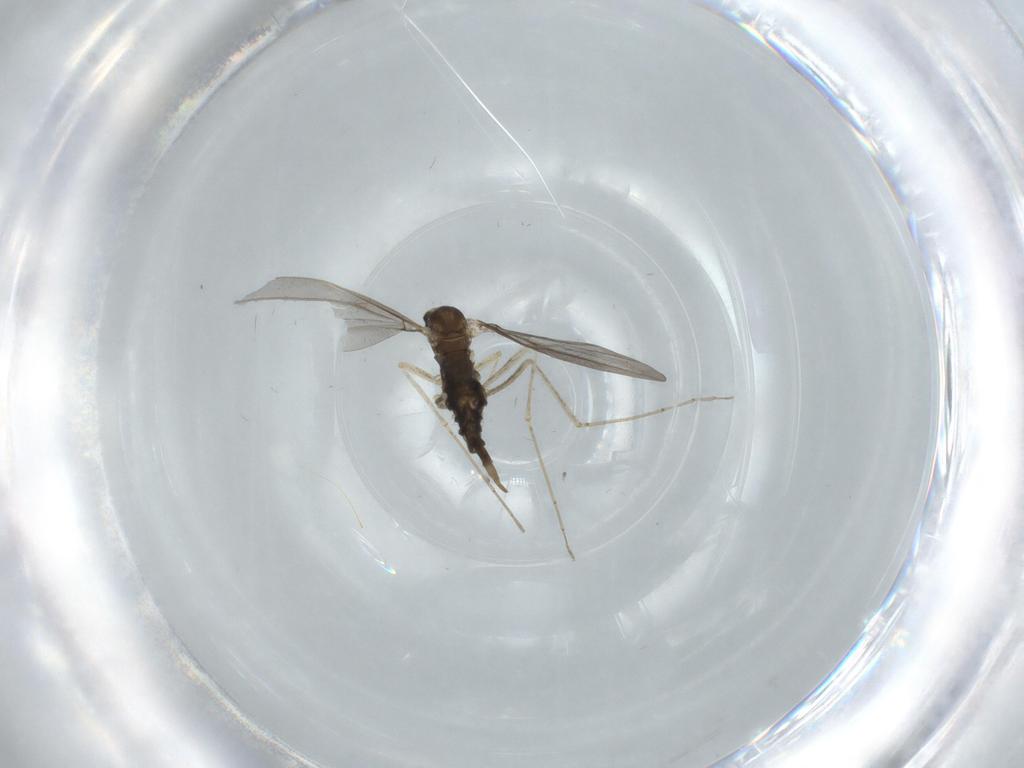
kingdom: Animalia
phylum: Arthropoda
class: Insecta
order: Diptera
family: Cecidomyiidae
